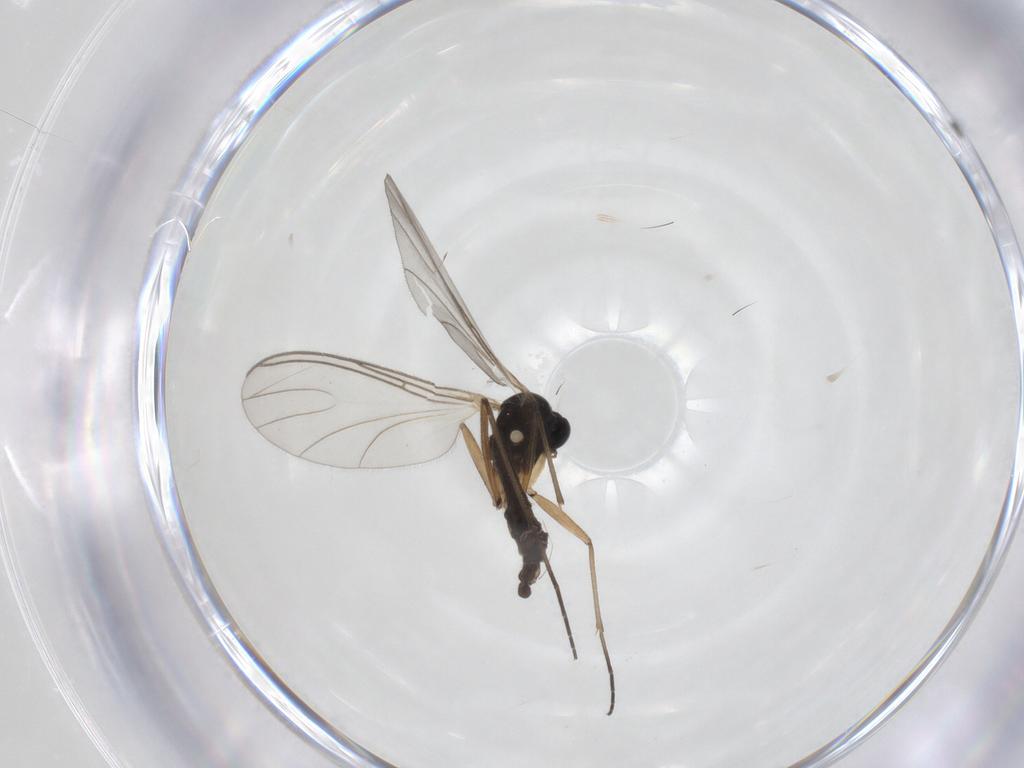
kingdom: Animalia
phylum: Arthropoda
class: Insecta
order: Diptera
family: Sciaridae
